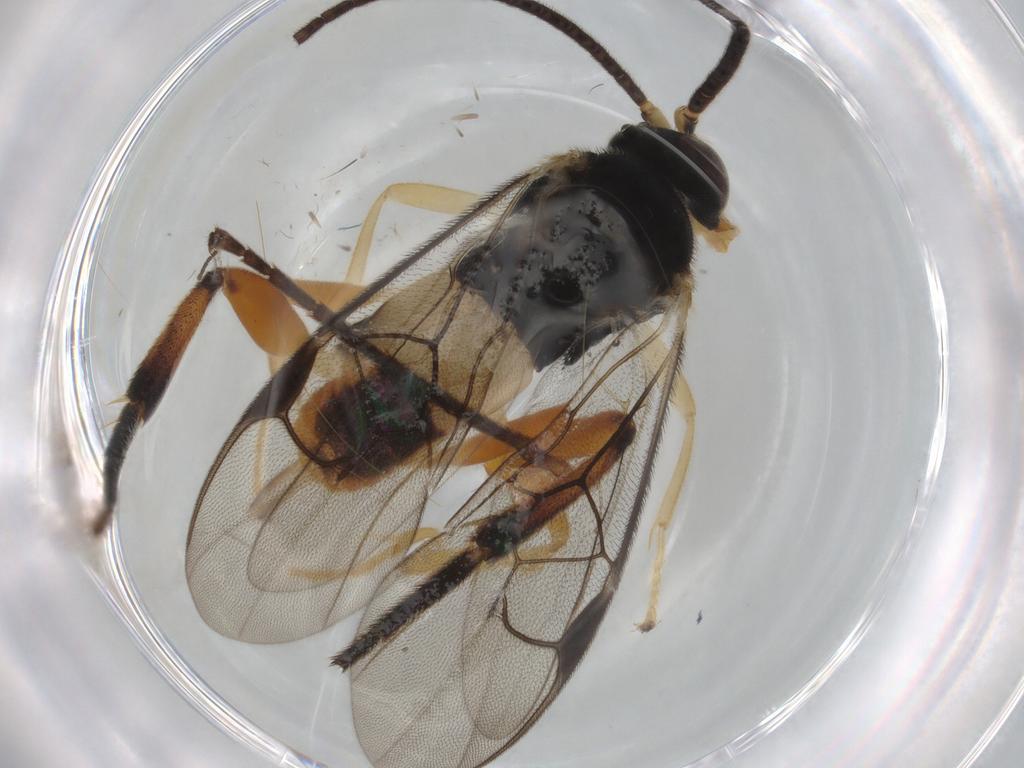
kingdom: Animalia
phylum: Arthropoda
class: Insecta
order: Hymenoptera
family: Braconidae
